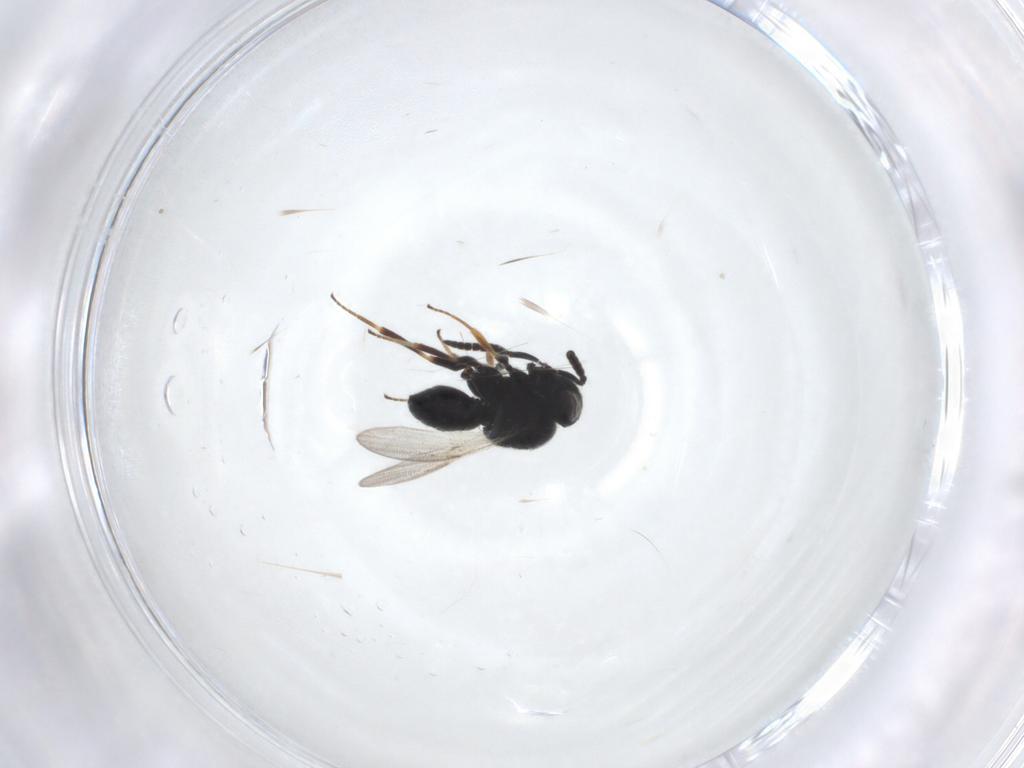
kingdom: Animalia
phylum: Arthropoda
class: Insecta
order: Hymenoptera
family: Scelionidae
